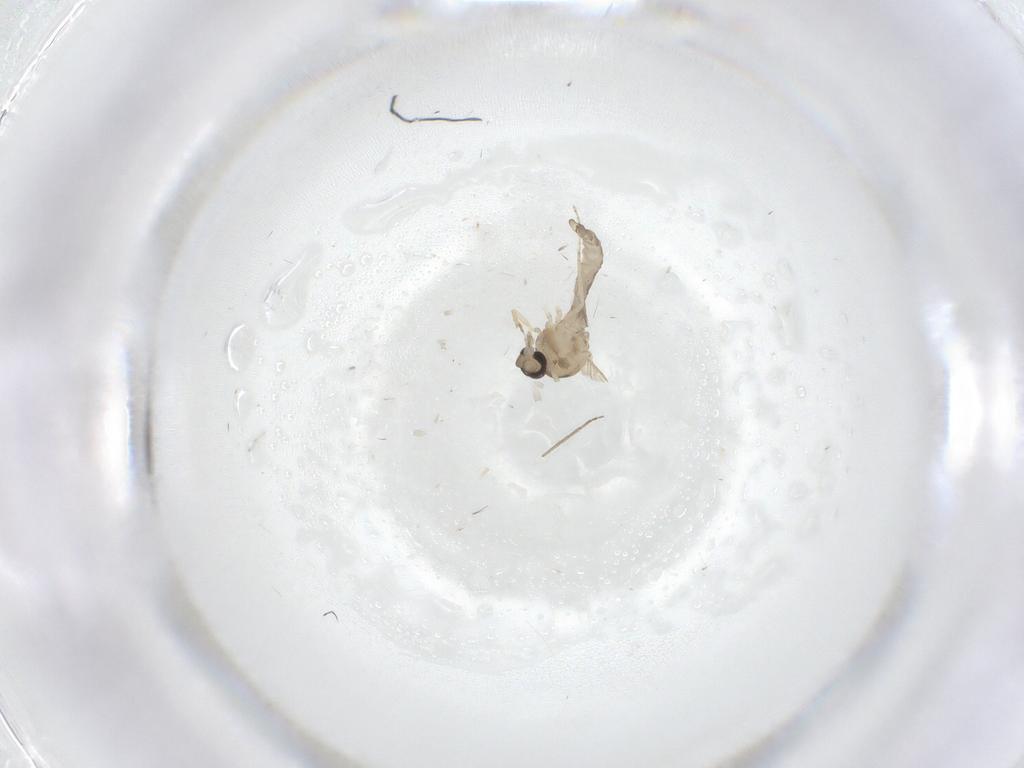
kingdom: Animalia
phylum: Arthropoda
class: Insecta
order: Diptera
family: Ceratopogonidae
